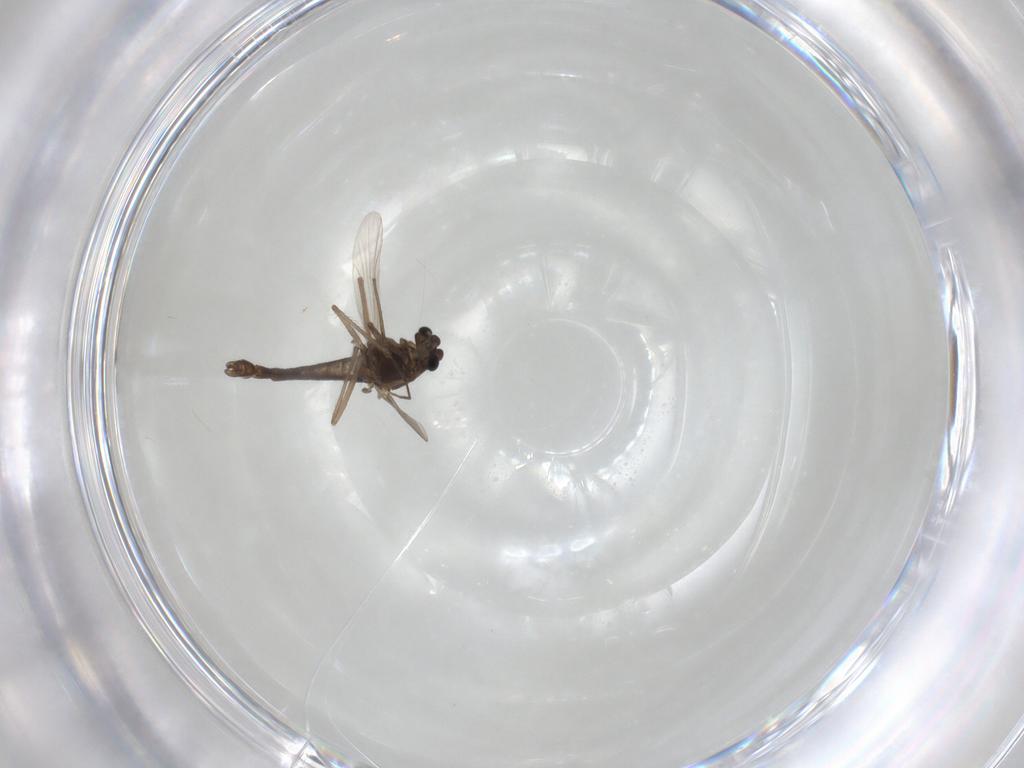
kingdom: Animalia
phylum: Arthropoda
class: Insecta
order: Diptera
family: Chironomidae
